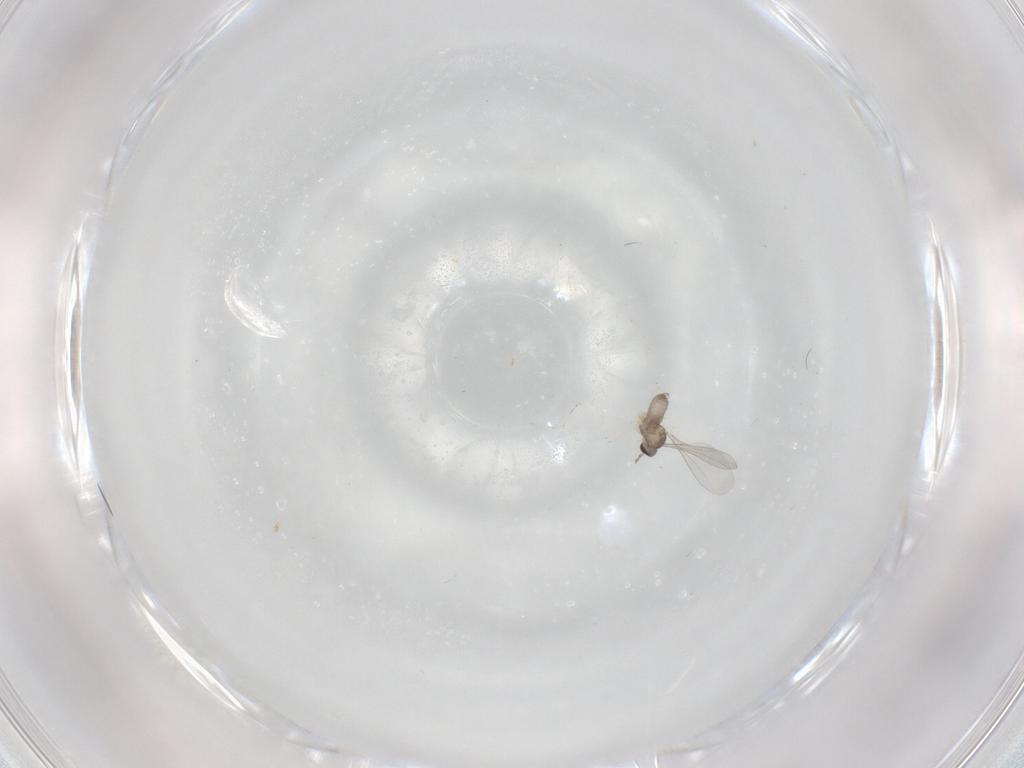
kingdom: Animalia
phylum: Arthropoda
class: Insecta
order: Diptera
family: Cecidomyiidae
